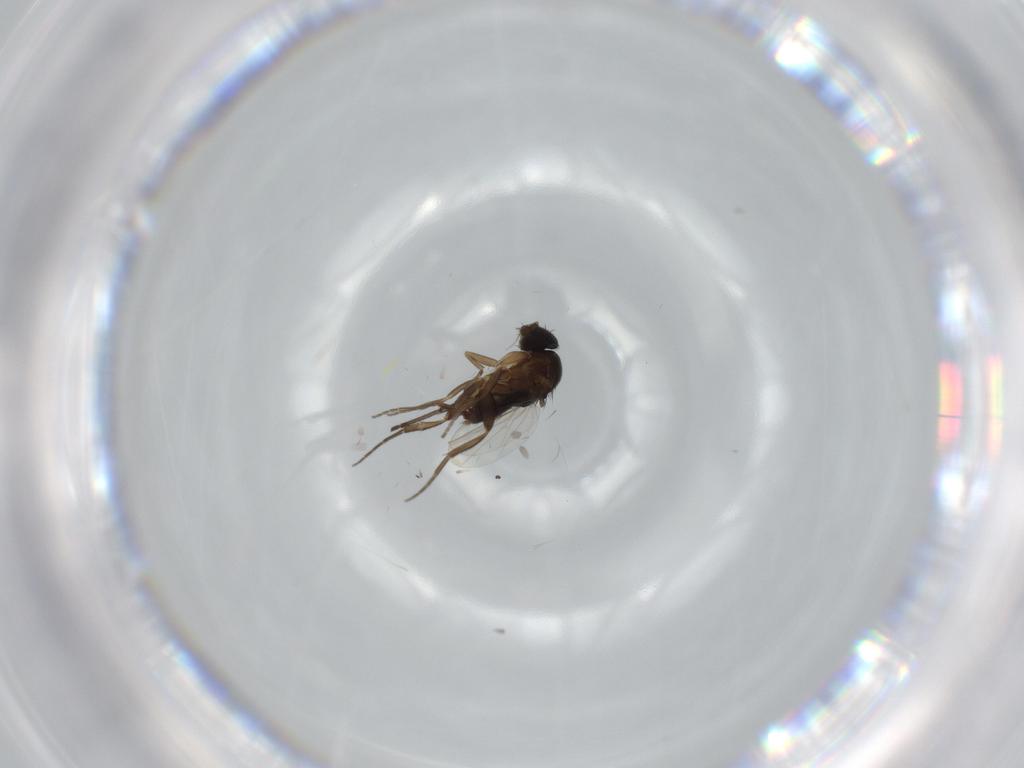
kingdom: Animalia
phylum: Arthropoda
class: Insecta
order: Diptera
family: Phoridae
